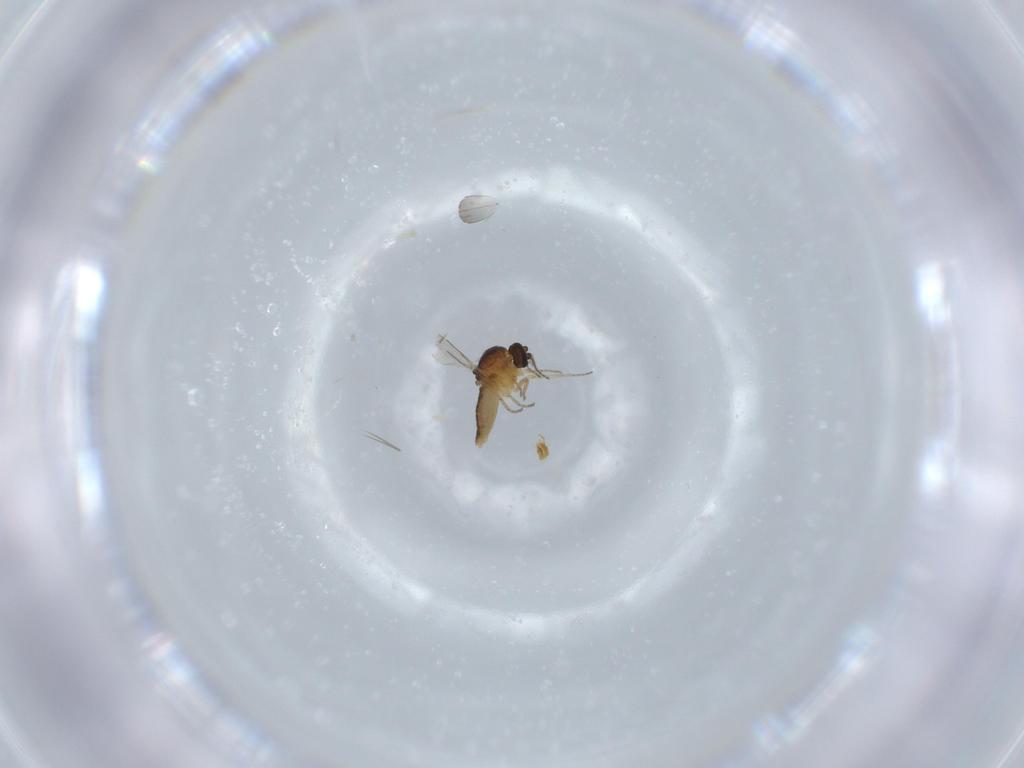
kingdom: Animalia
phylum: Arthropoda
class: Insecta
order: Diptera
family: Ceratopogonidae
